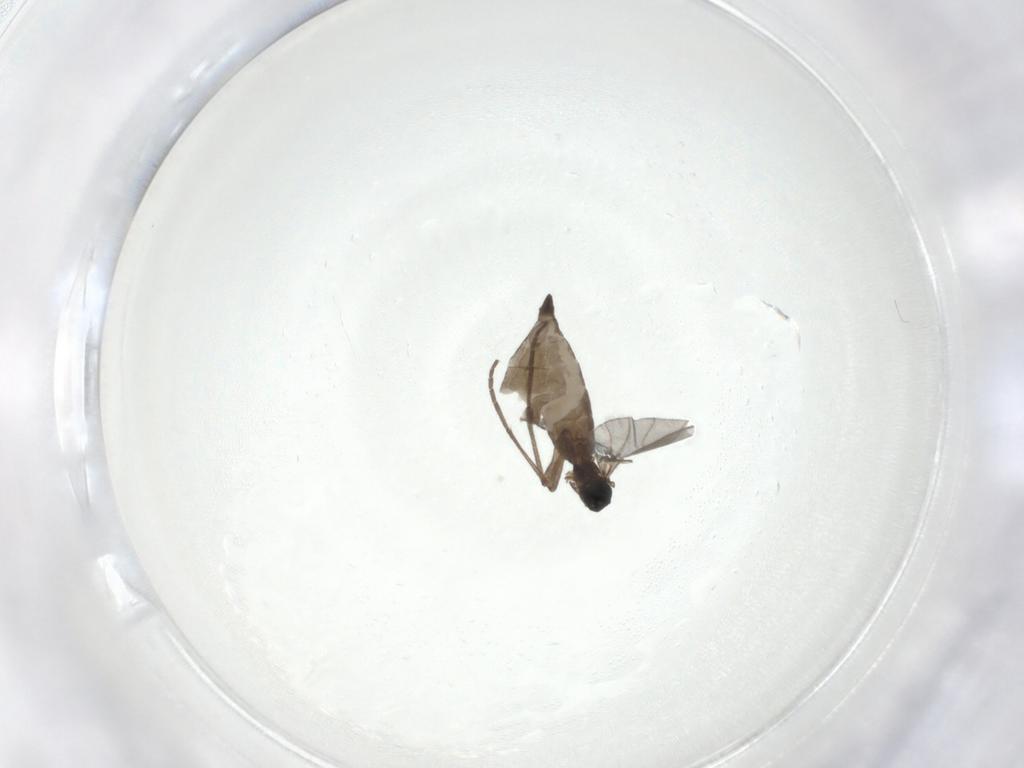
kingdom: Animalia
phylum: Arthropoda
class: Insecta
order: Diptera
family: Sciaridae
